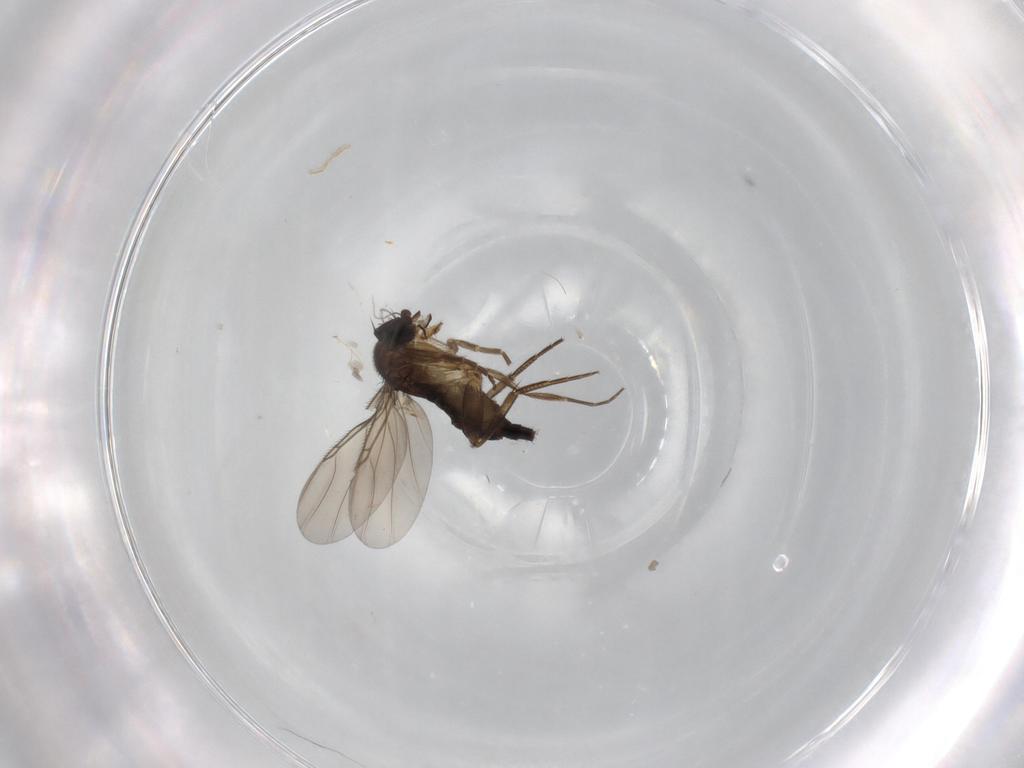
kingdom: Animalia
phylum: Arthropoda
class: Insecta
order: Diptera
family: Phoridae
